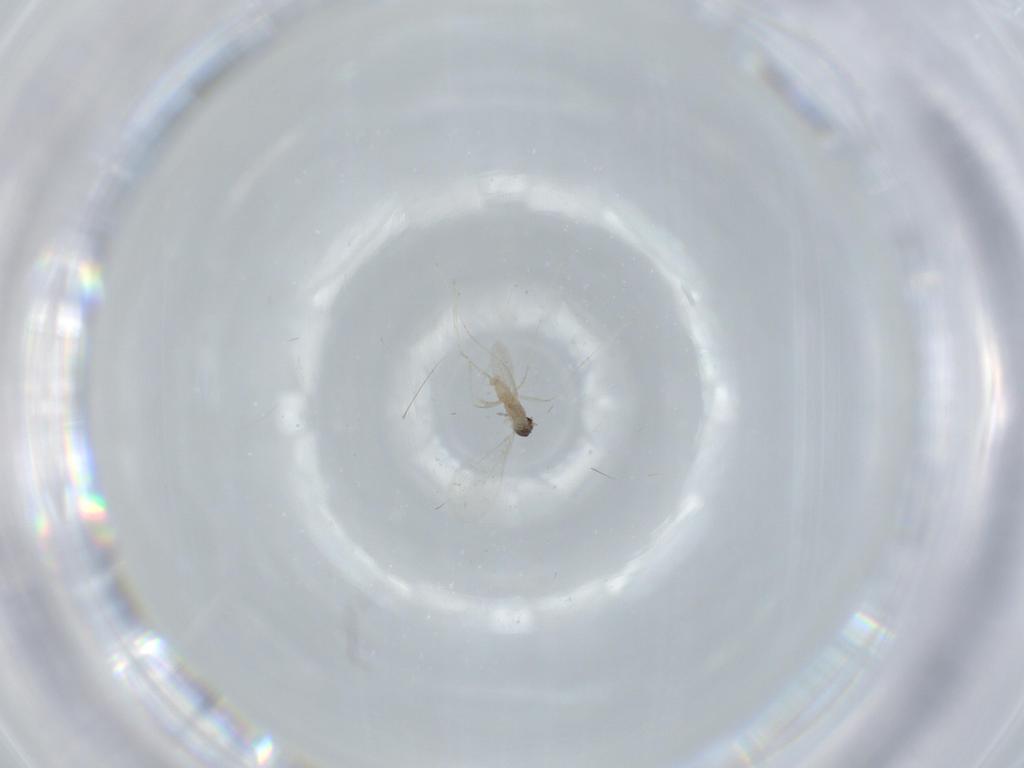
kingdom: Animalia
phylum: Arthropoda
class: Insecta
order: Diptera
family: Cecidomyiidae
